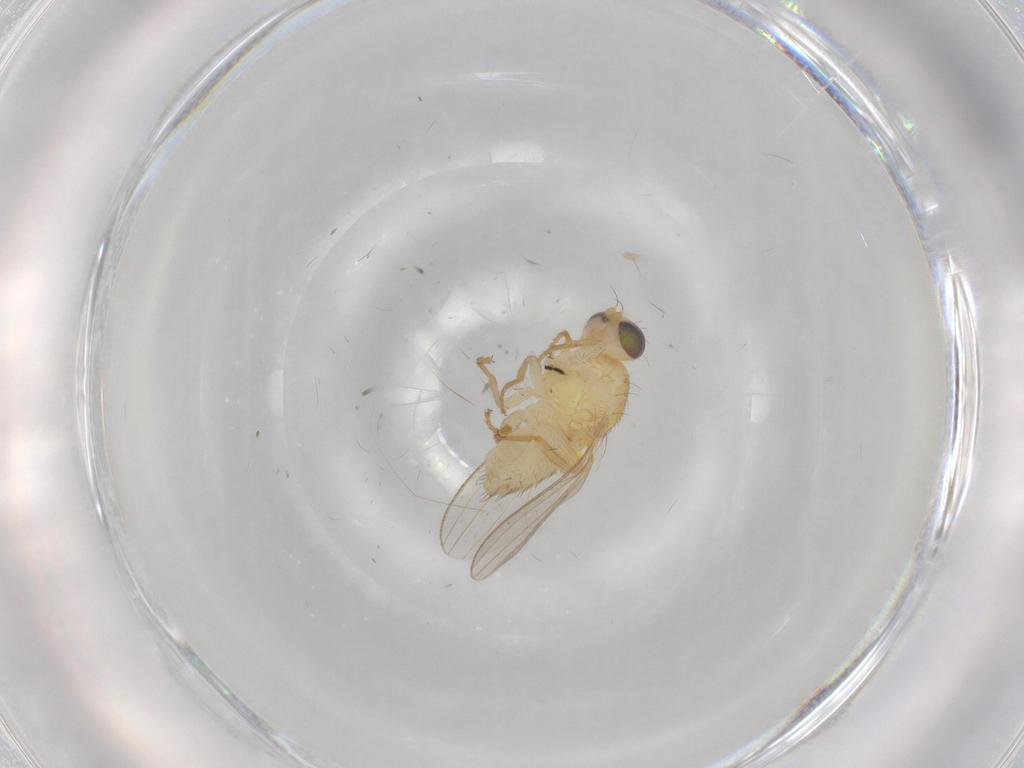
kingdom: Animalia
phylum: Arthropoda
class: Insecta
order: Diptera
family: Chyromyidae
